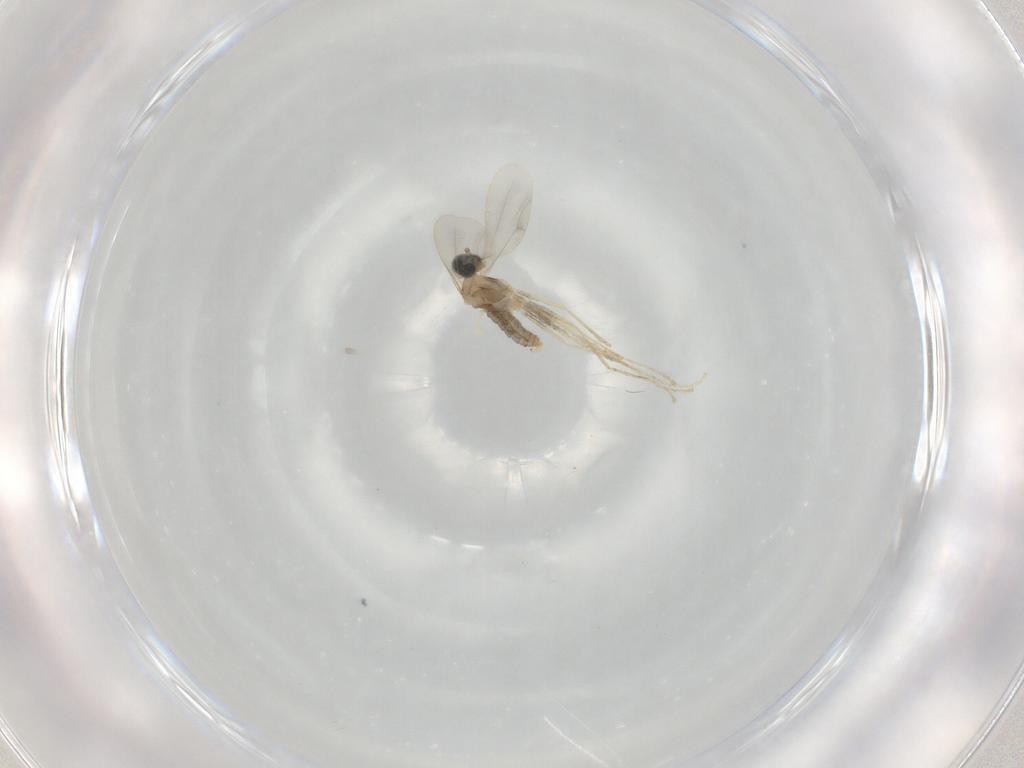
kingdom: Animalia
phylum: Arthropoda
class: Insecta
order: Diptera
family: Cecidomyiidae
